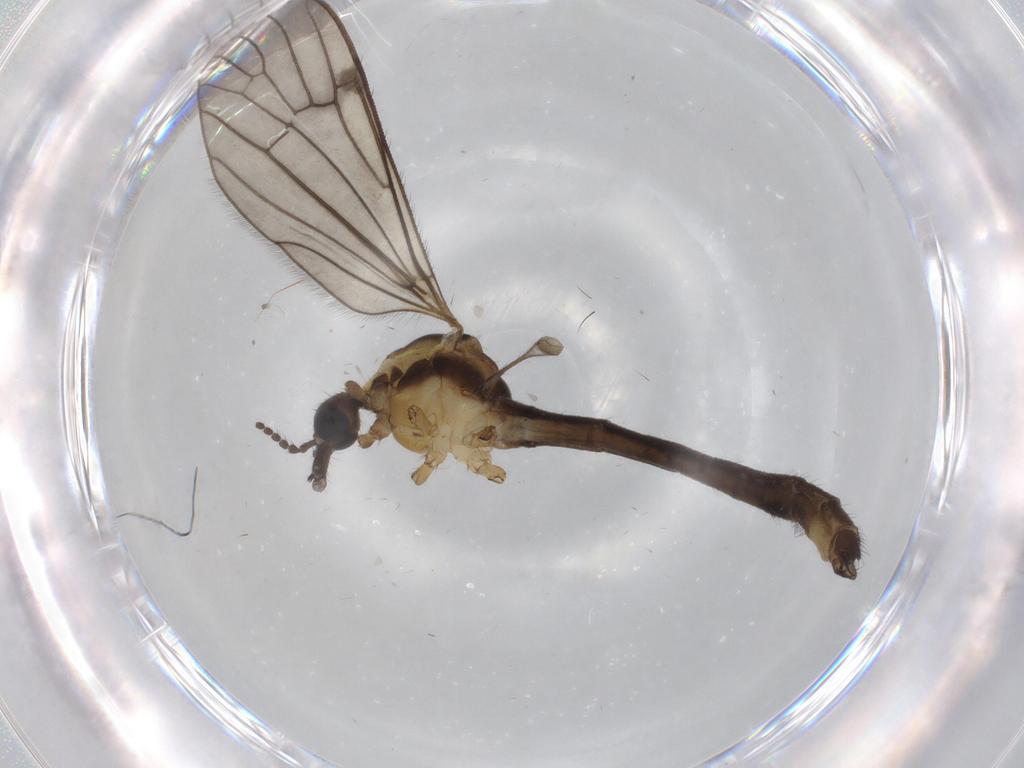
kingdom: Animalia
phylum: Arthropoda
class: Insecta
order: Diptera
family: Limoniidae
